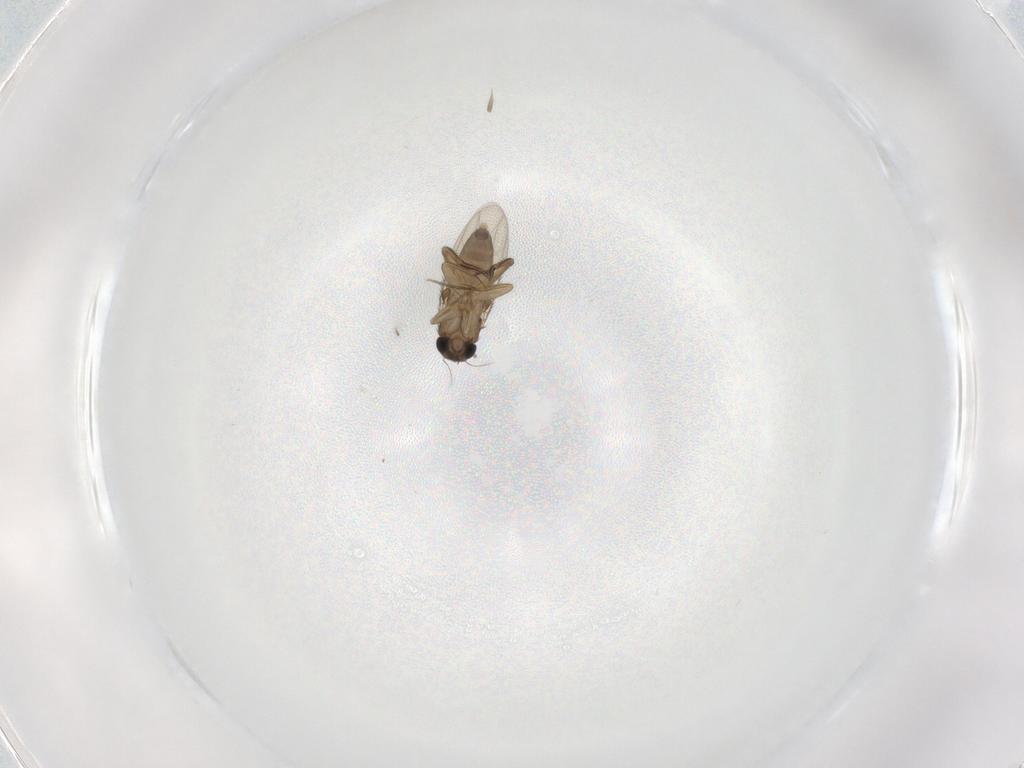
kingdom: Animalia
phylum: Arthropoda
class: Insecta
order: Diptera
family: Phoridae
